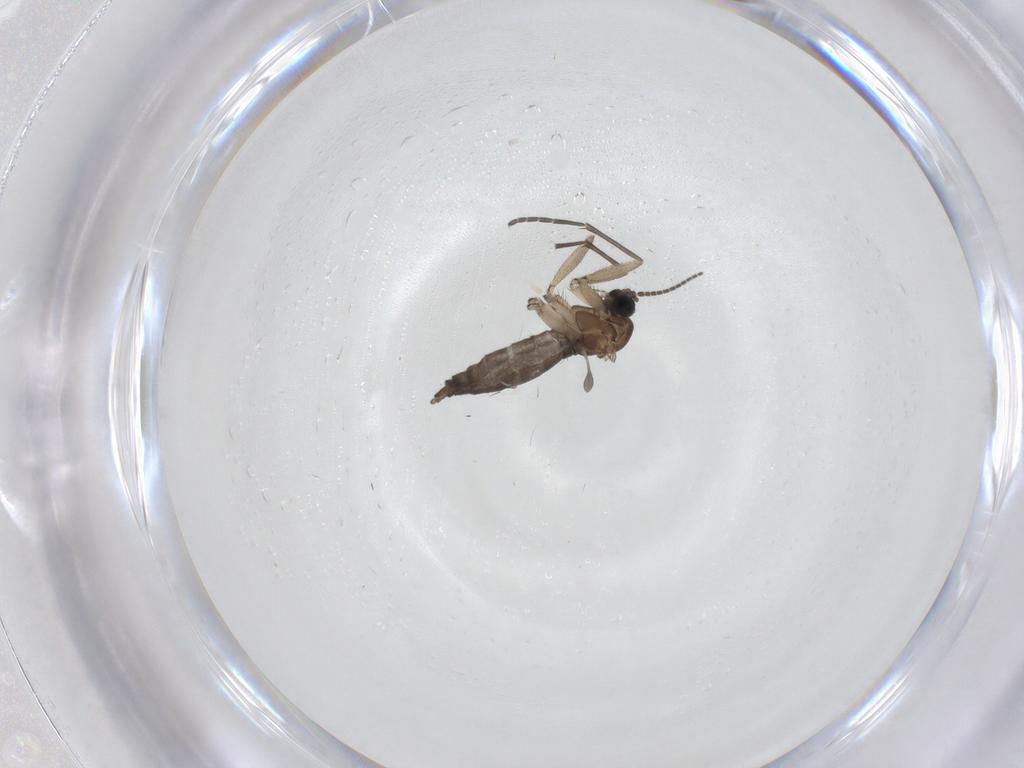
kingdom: Animalia
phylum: Arthropoda
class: Insecta
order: Diptera
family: Sciaridae
